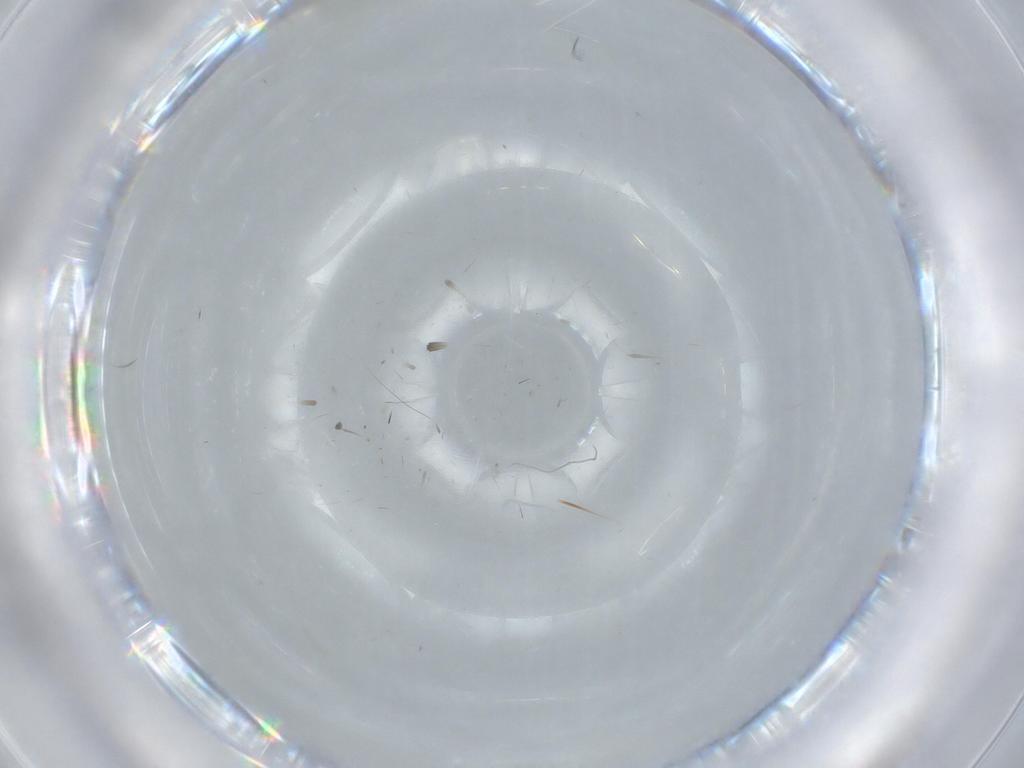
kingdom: Animalia
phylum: Arthropoda
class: Insecta
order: Hemiptera
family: Aleyrodidae
